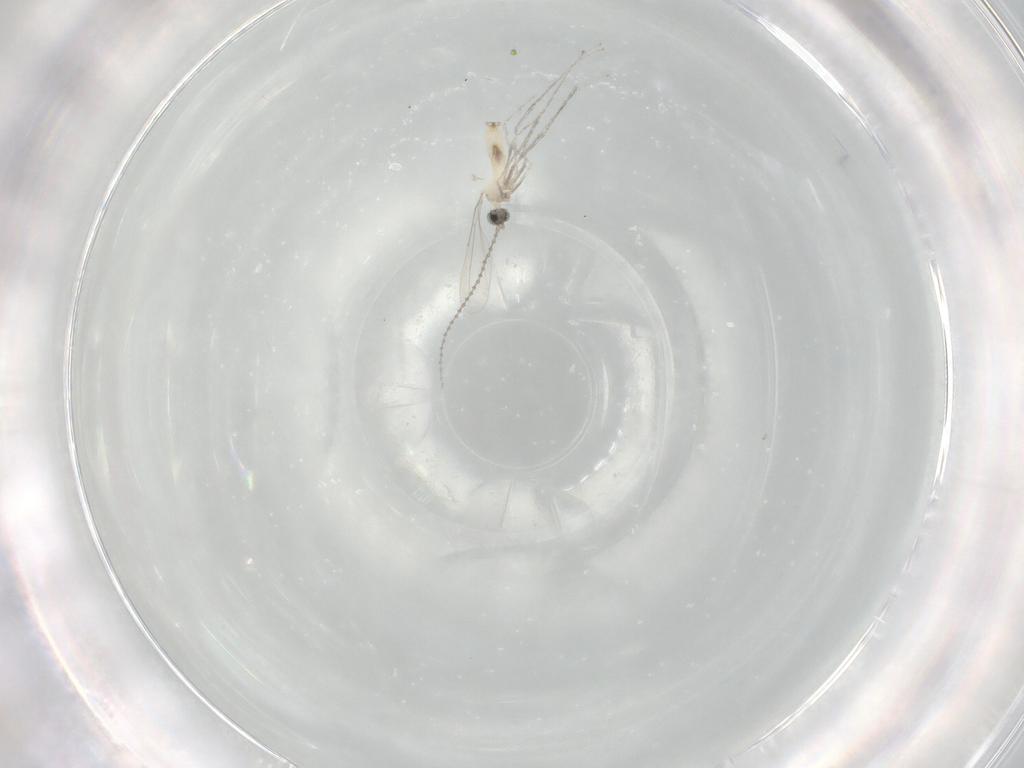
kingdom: Animalia
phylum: Arthropoda
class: Insecta
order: Diptera
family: Cecidomyiidae
